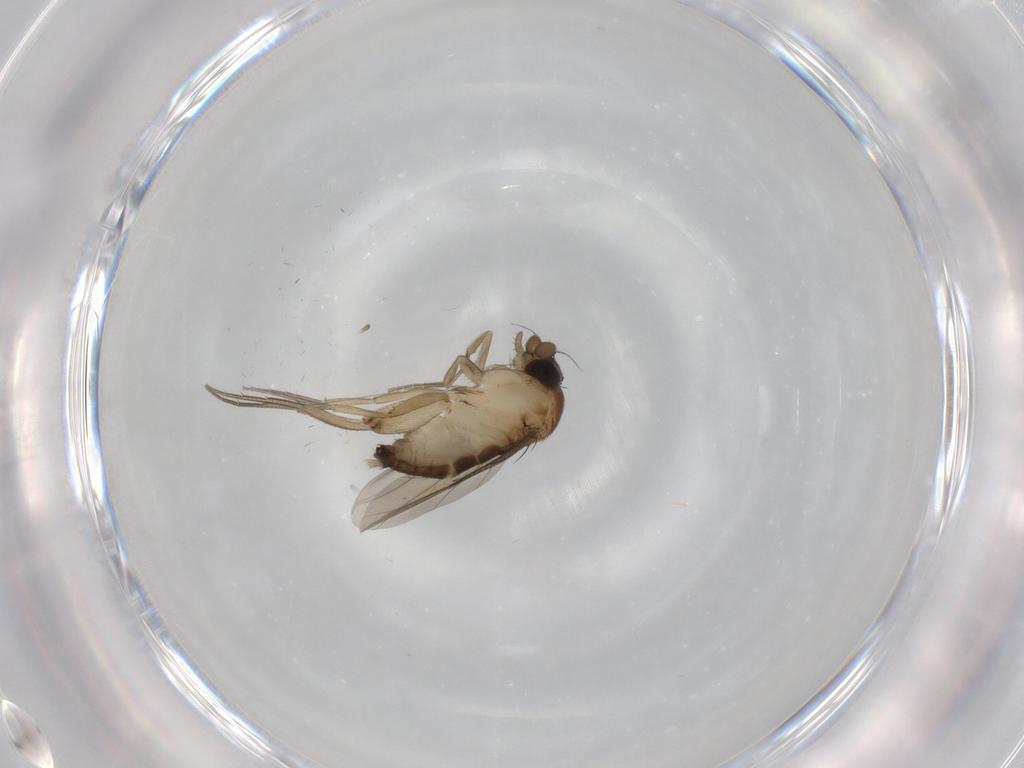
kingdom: Animalia
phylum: Arthropoda
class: Insecta
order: Diptera
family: Phoridae
